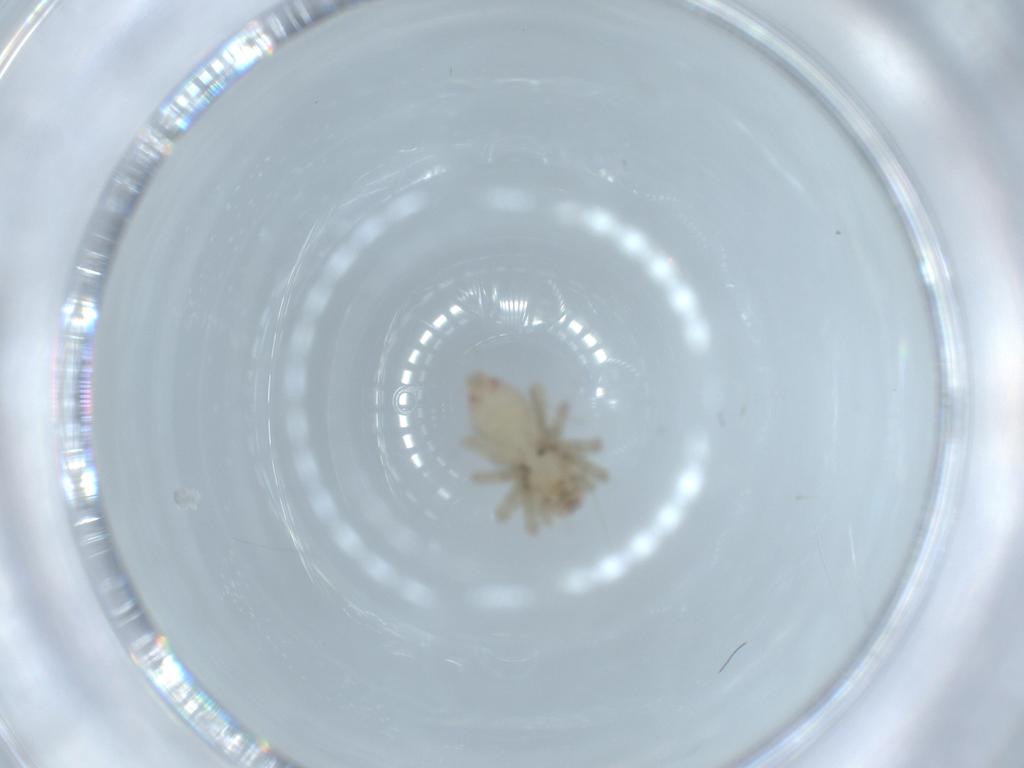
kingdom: Animalia
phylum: Arthropoda
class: Arachnida
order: Araneae
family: Clubionidae
